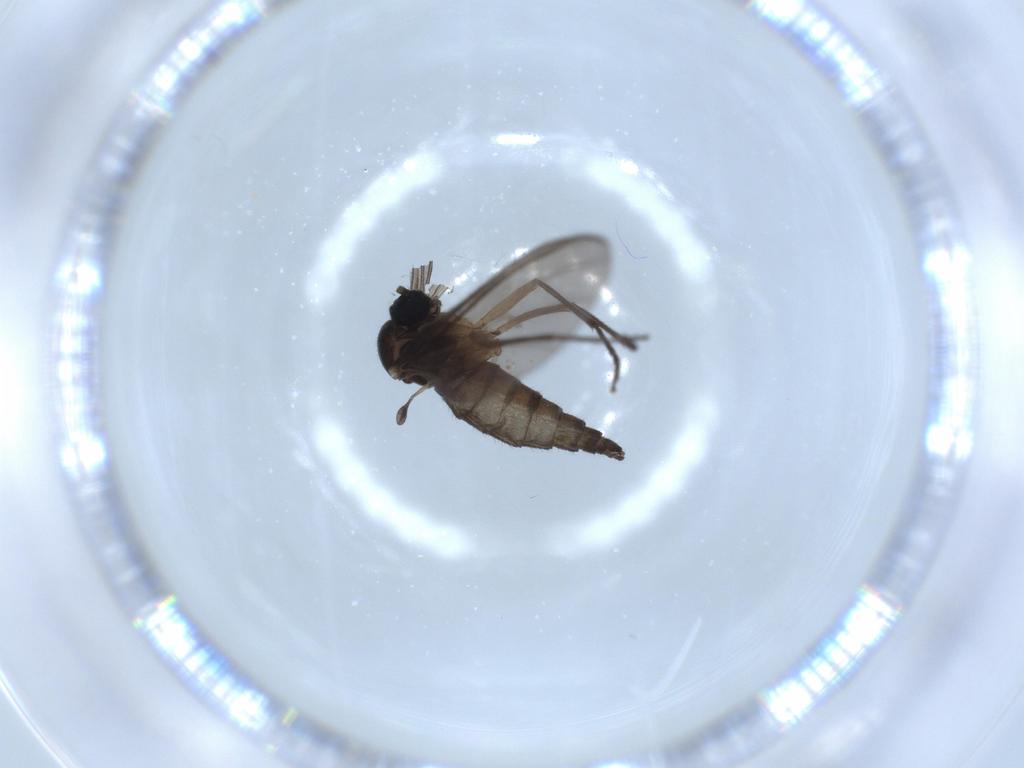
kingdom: Animalia
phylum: Arthropoda
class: Insecta
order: Diptera
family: Sciaridae
